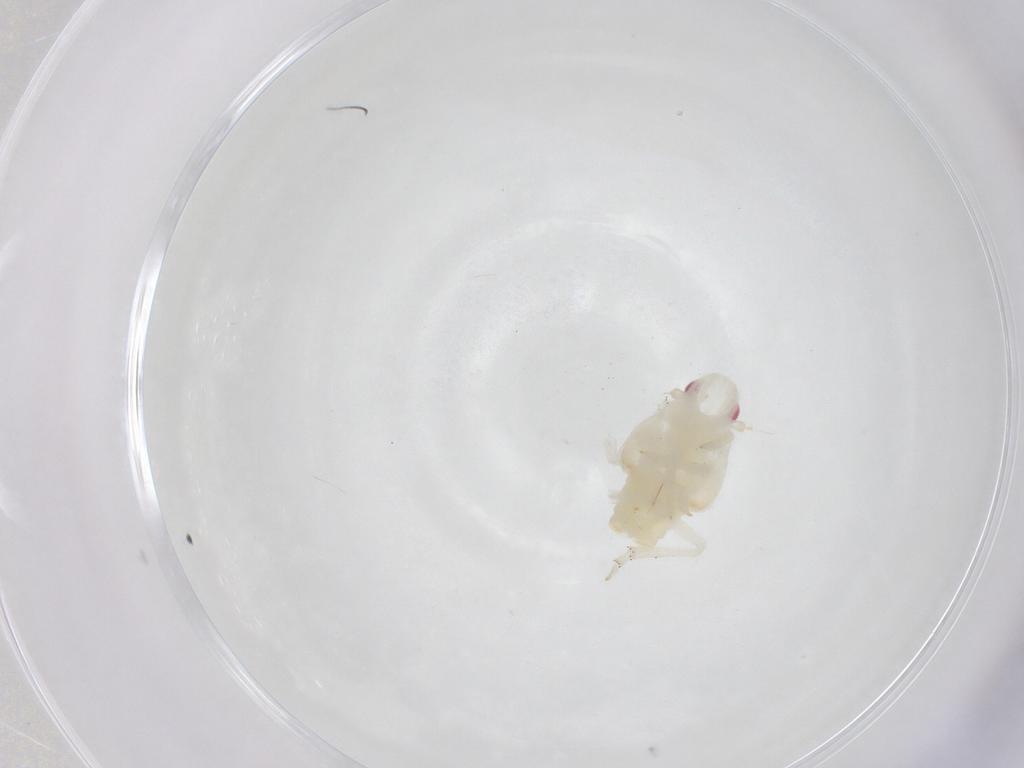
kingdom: Animalia
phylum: Arthropoda
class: Insecta
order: Hemiptera
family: Flatidae
